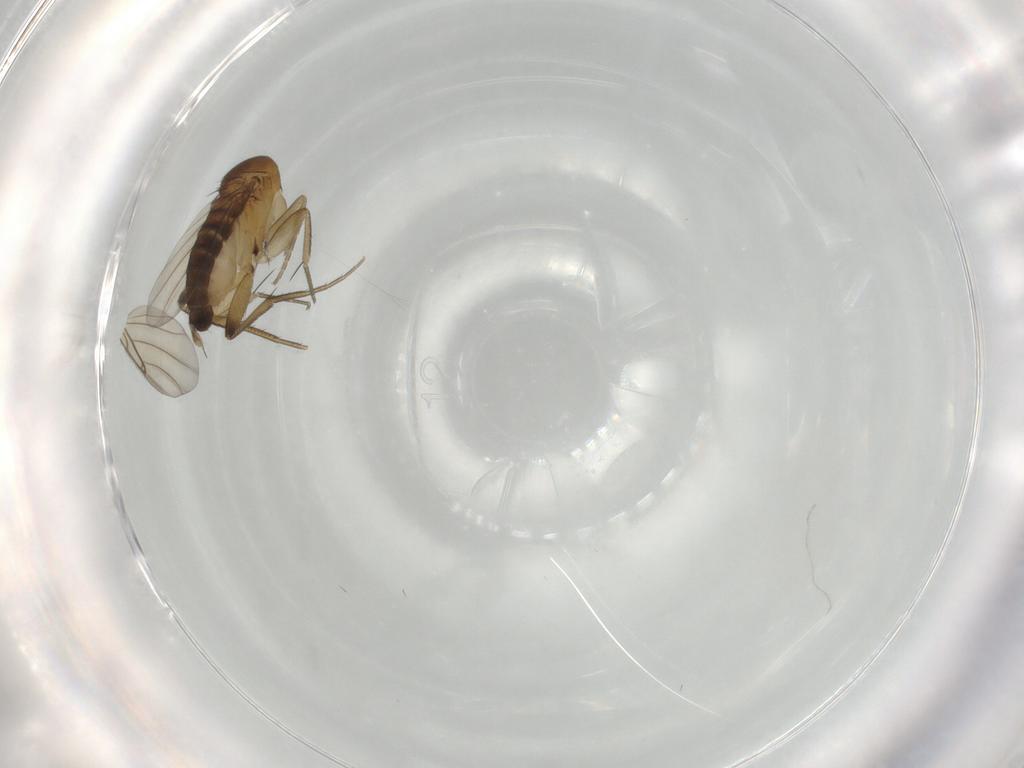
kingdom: Animalia
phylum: Arthropoda
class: Insecta
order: Diptera
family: Phoridae
